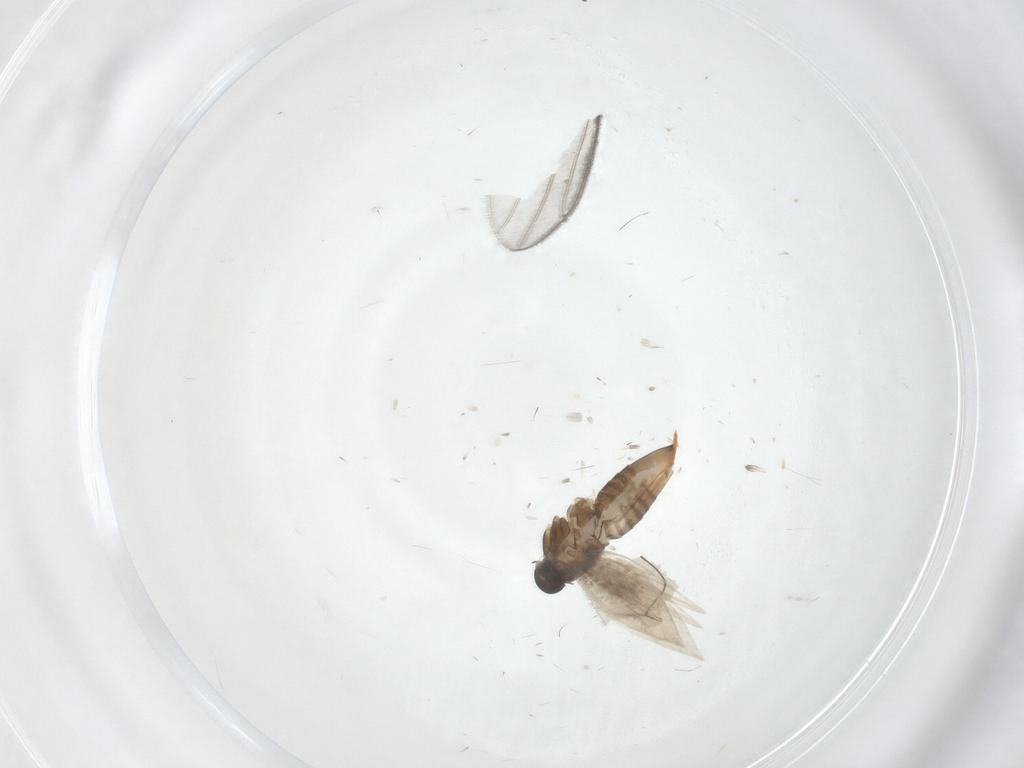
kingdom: Animalia
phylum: Arthropoda
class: Insecta
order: Diptera
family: Empididae
